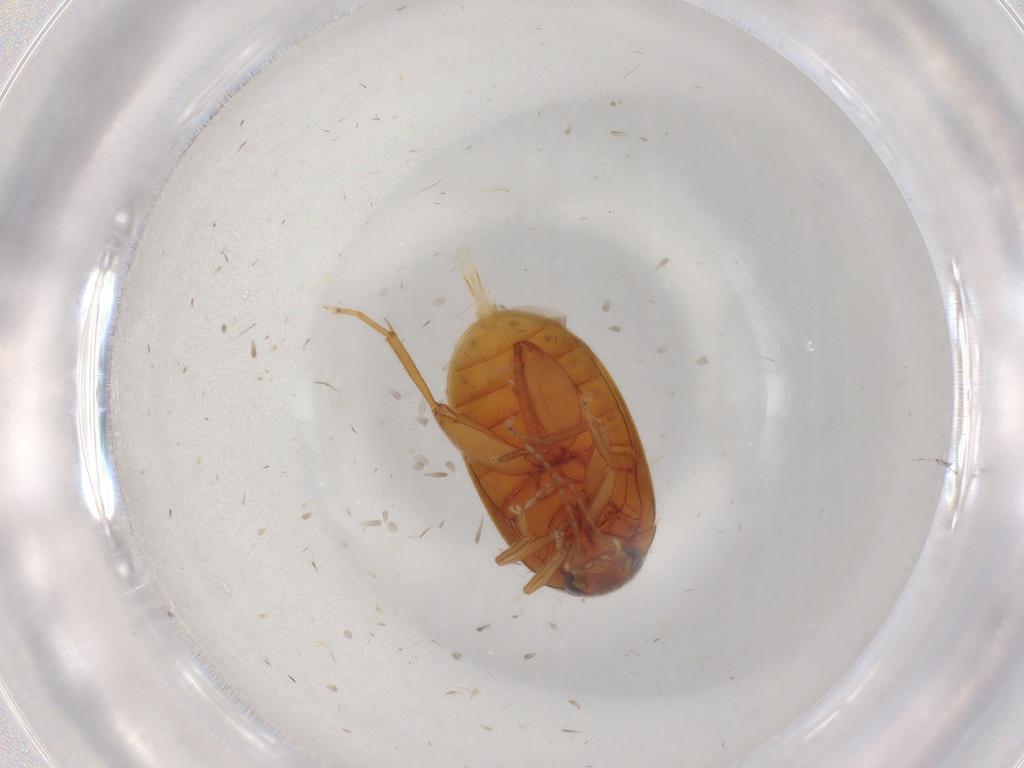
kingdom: Animalia
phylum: Arthropoda
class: Insecta
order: Coleoptera
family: Scirtidae
